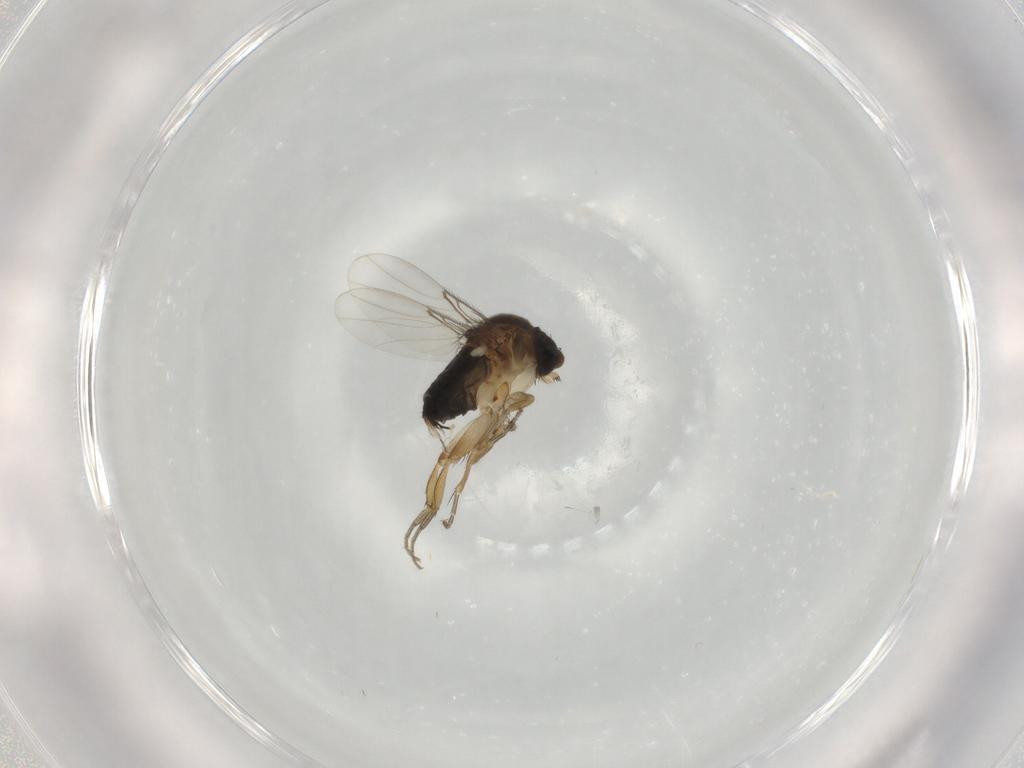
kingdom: Animalia
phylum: Arthropoda
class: Insecta
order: Diptera
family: Phoridae
